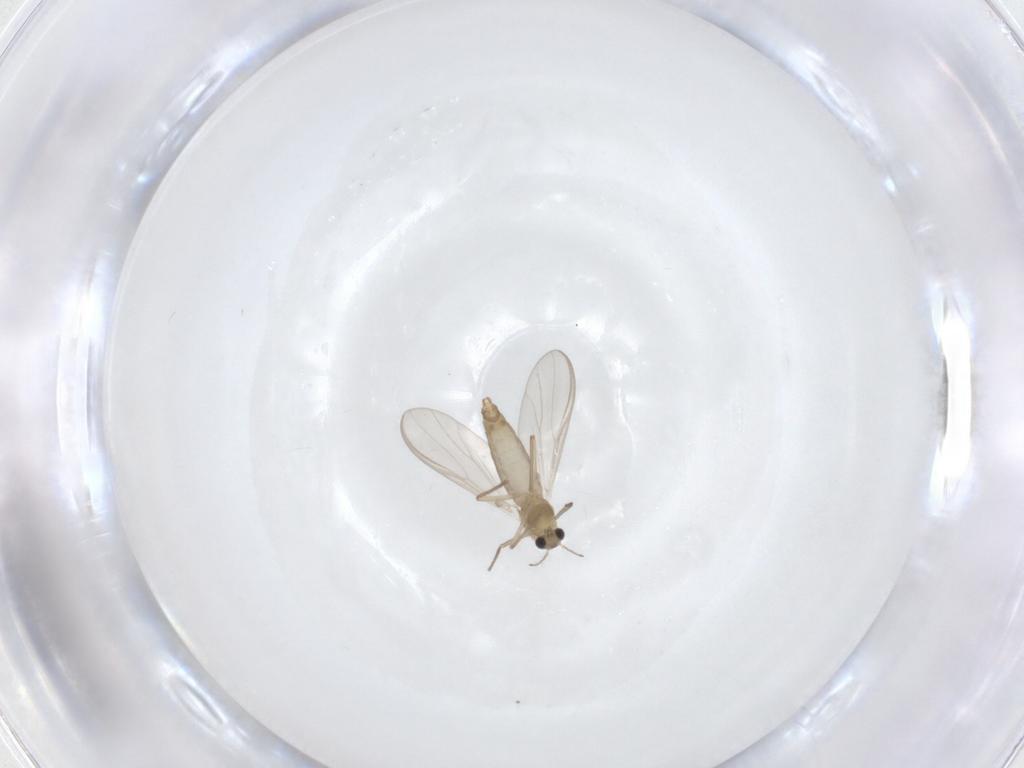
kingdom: Animalia
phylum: Arthropoda
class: Insecta
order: Diptera
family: Chironomidae
